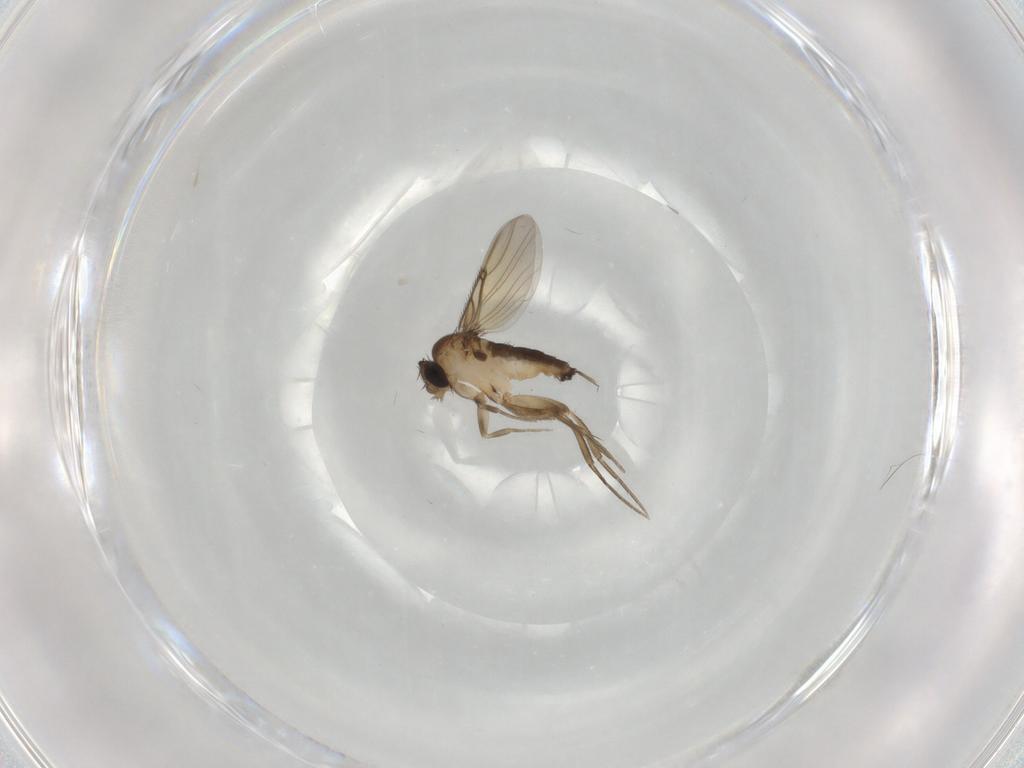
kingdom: Animalia
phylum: Arthropoda
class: Insecta
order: Diptera
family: Phoridae
